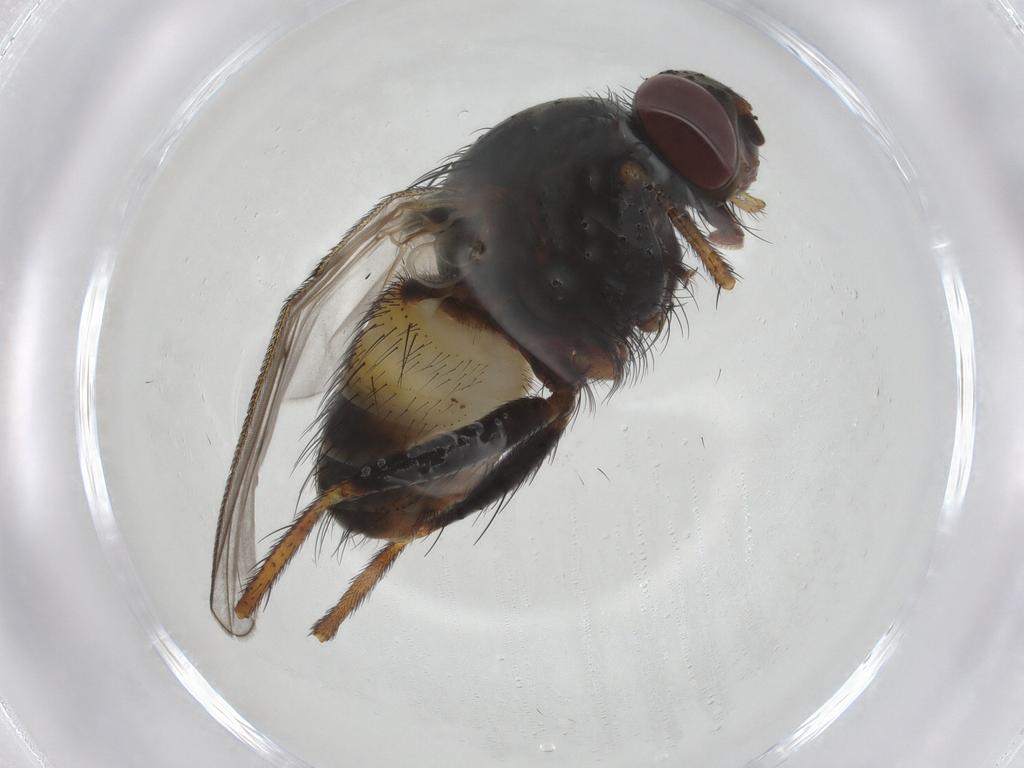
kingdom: Animalia
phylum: Arthropoda
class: Insecta
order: Diptera
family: Muscidae
